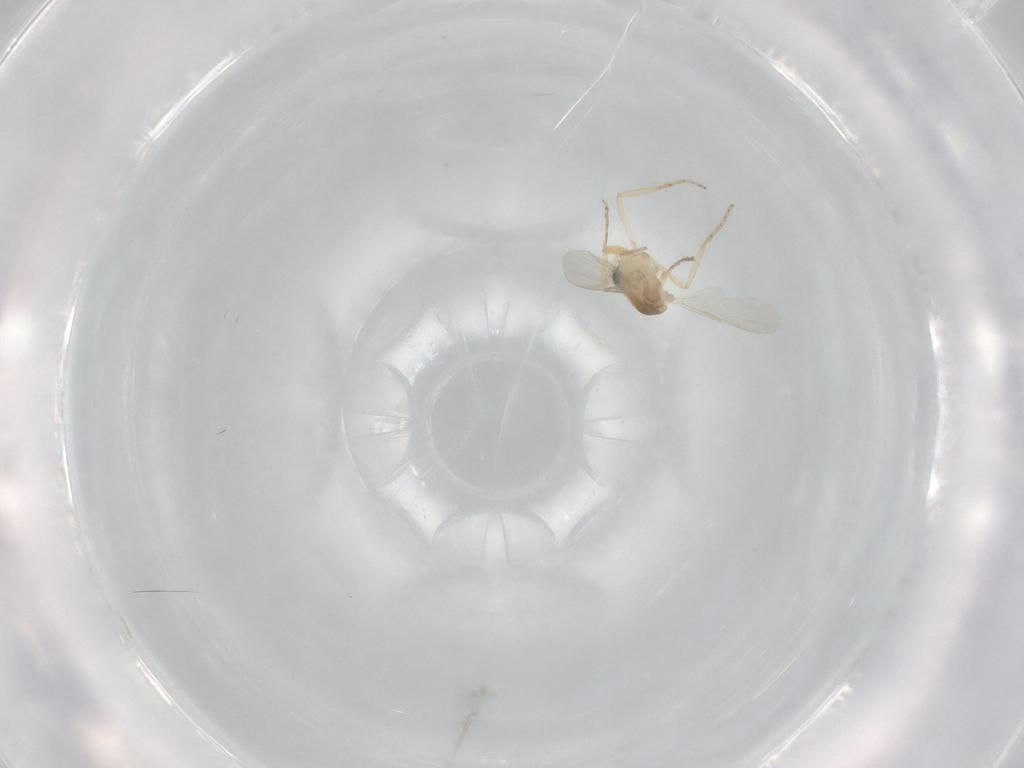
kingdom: Animalia
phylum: Arthropoda
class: Insecta
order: Diptera
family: Ceratopogonidae
